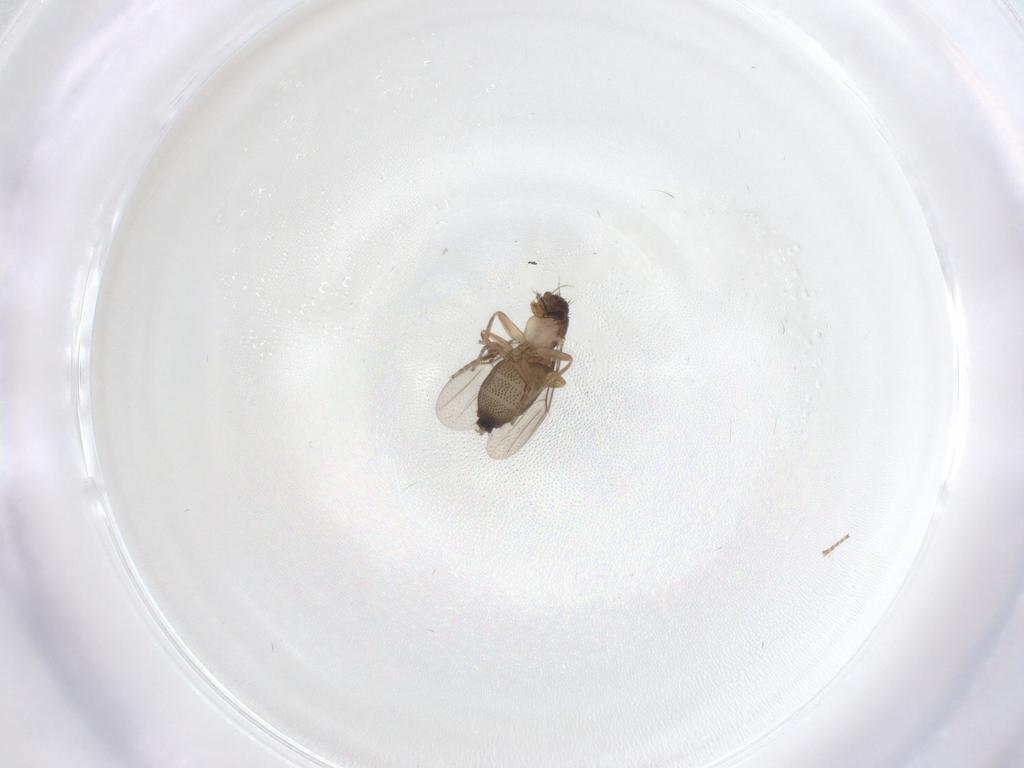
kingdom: Animalia
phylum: Arthropoda
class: Insecta
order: Diptera
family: Phoridae
